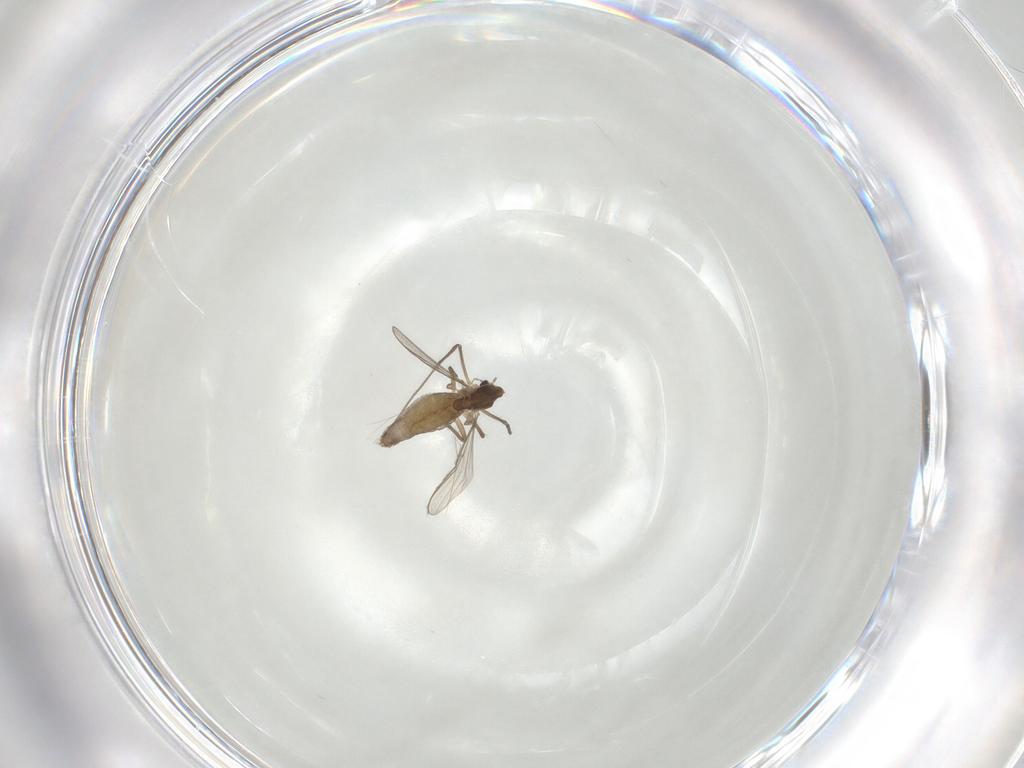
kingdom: Animalia
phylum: Arthropoda
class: Insecta
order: Diptera
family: Chironomidae
